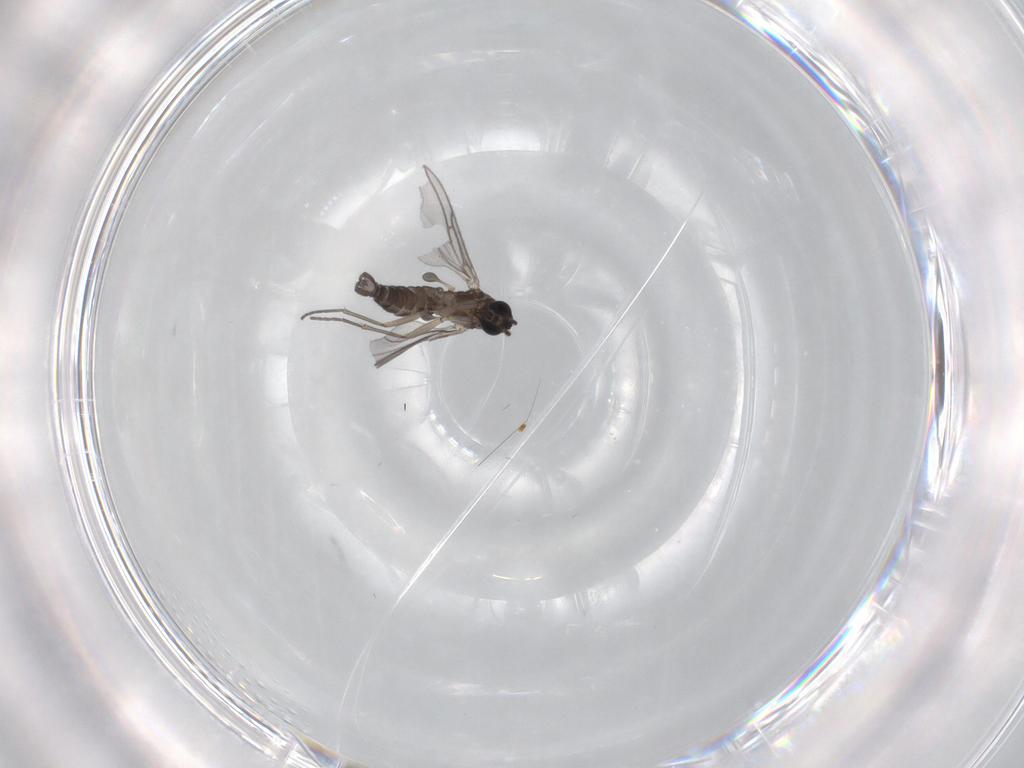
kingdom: Animalia
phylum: Arthropoda
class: Insecta
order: Diptera
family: Sciaridae
